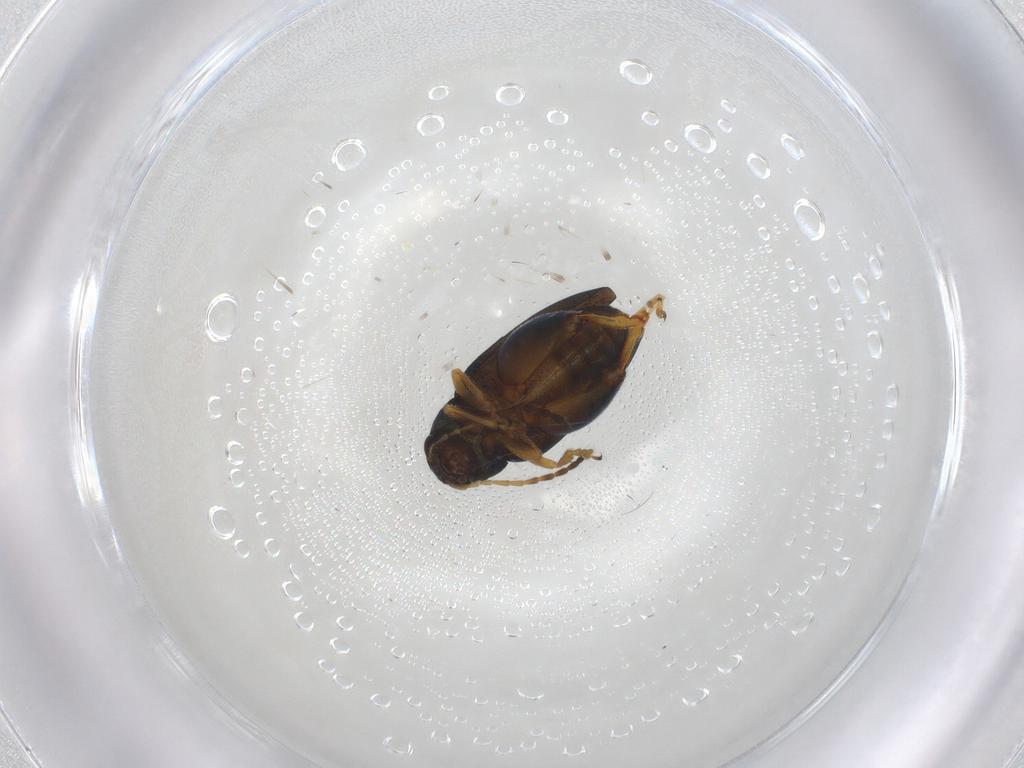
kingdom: Animalia
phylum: Arthropoda
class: Insecta
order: Coleoptera
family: Chrysomelidae
